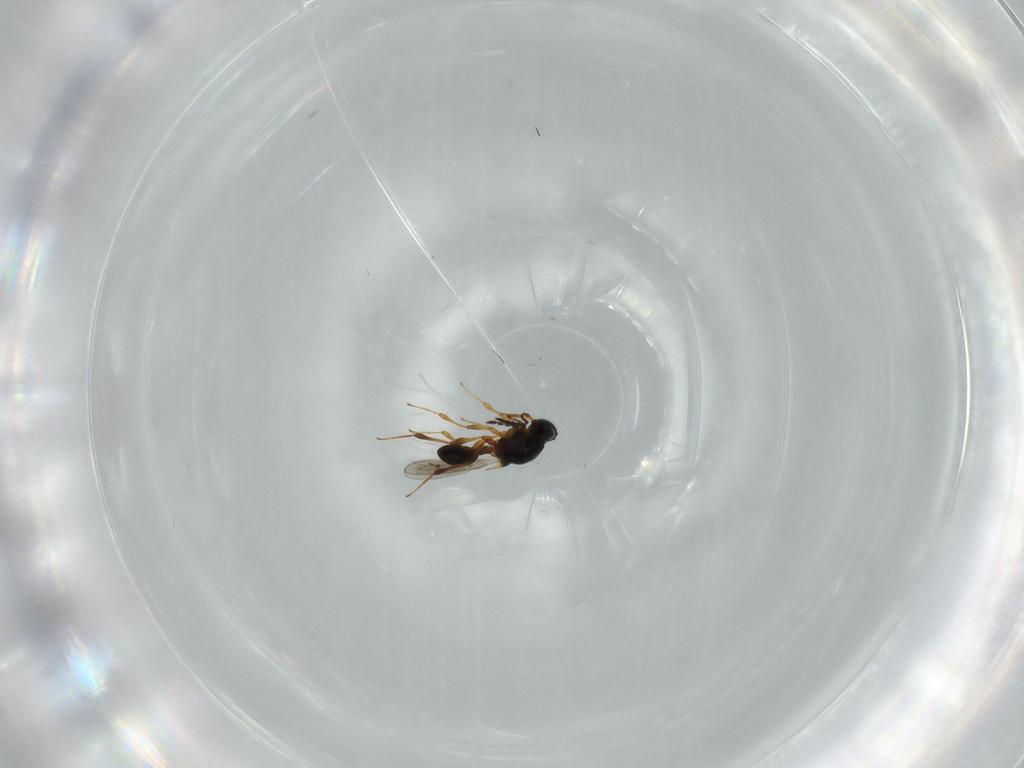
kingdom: Animalia
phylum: Arthropoda
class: Insecta
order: Hymenoptera
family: Platygastridae
